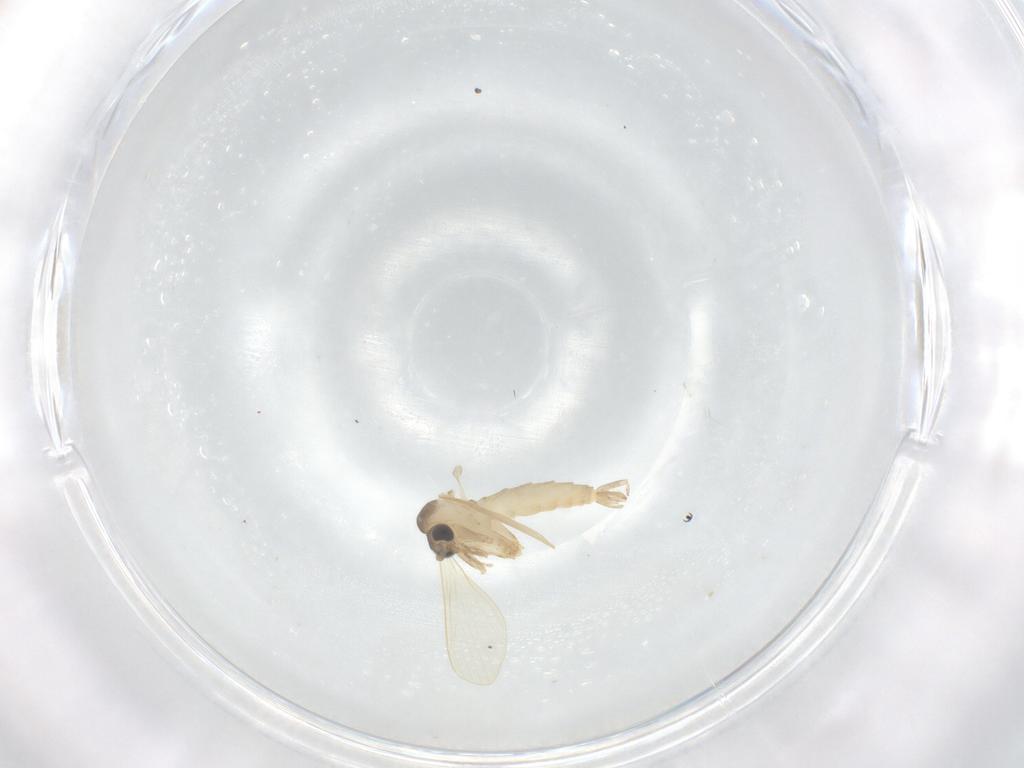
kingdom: Animalia
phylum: Arthropoda
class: Insecta
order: Diptera
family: Psychodidae
